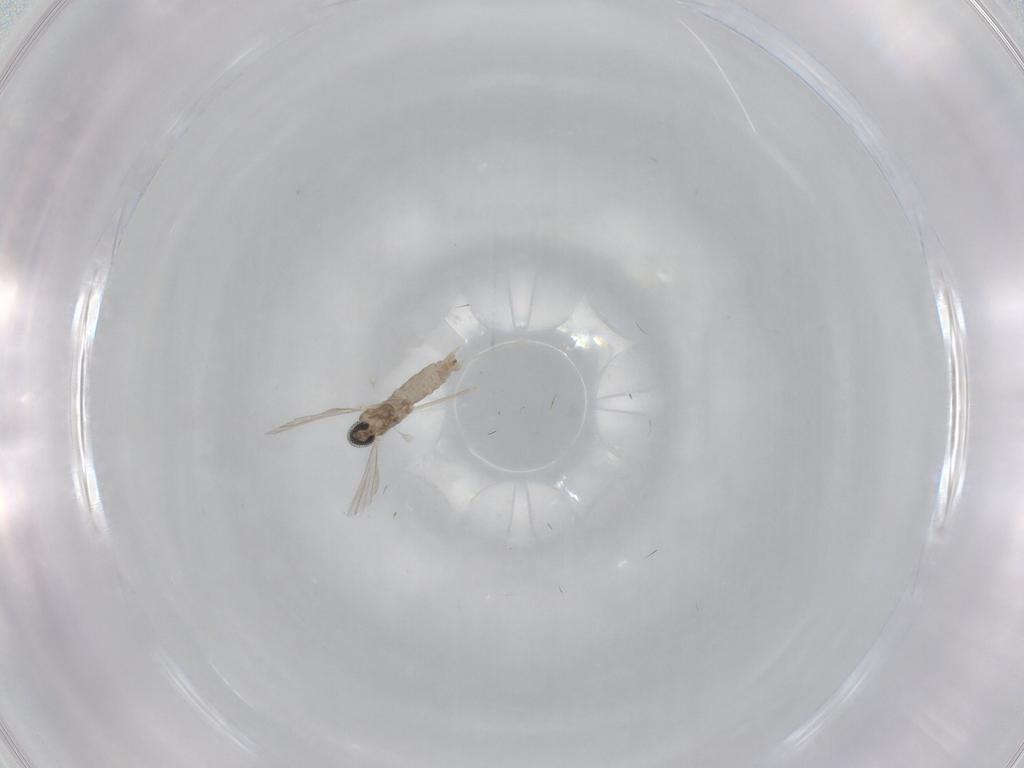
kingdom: Animalia
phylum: Arthropoda
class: Insecta
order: Diptera
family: Cecidomyiidae
